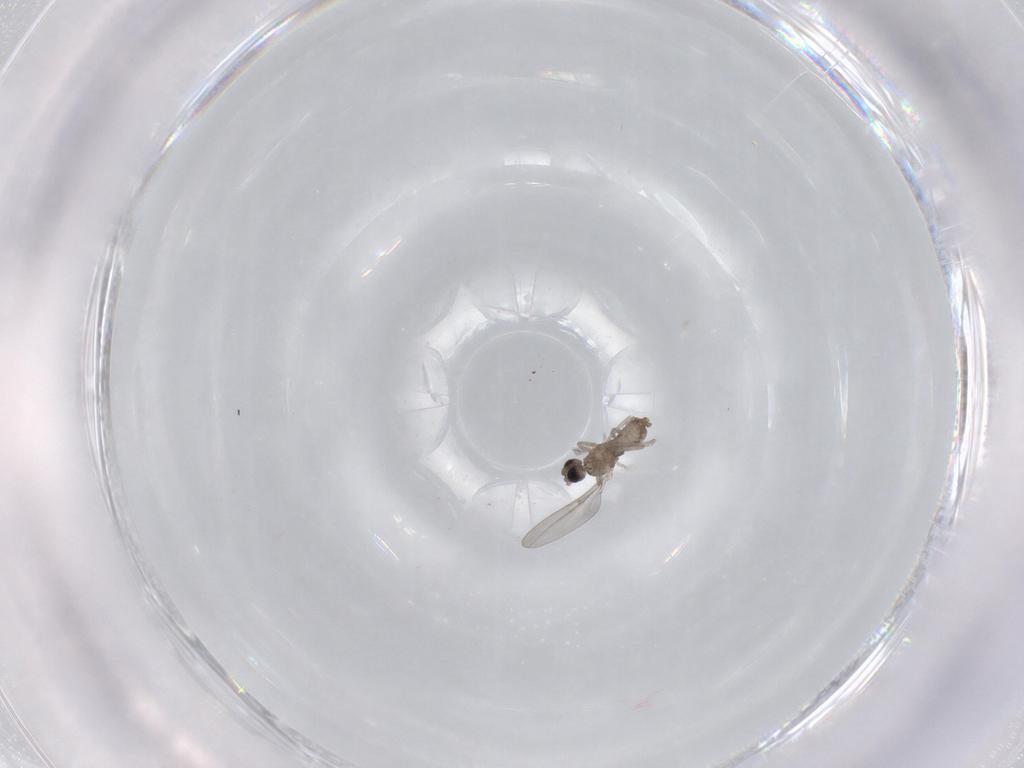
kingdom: Animalia
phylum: Arthropoda
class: Insecta
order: Diptera
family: Cecidomyiidae
